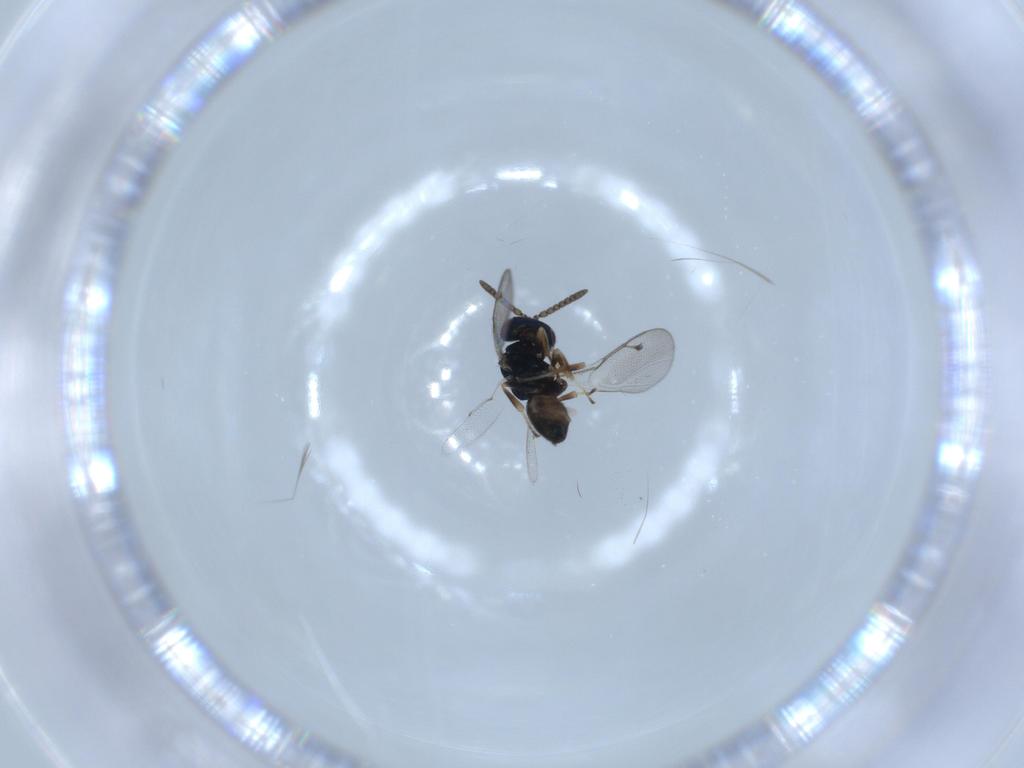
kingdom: Animalia
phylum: Arthropoda
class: Insecta
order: Hymenoptera
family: Pteromalidae
